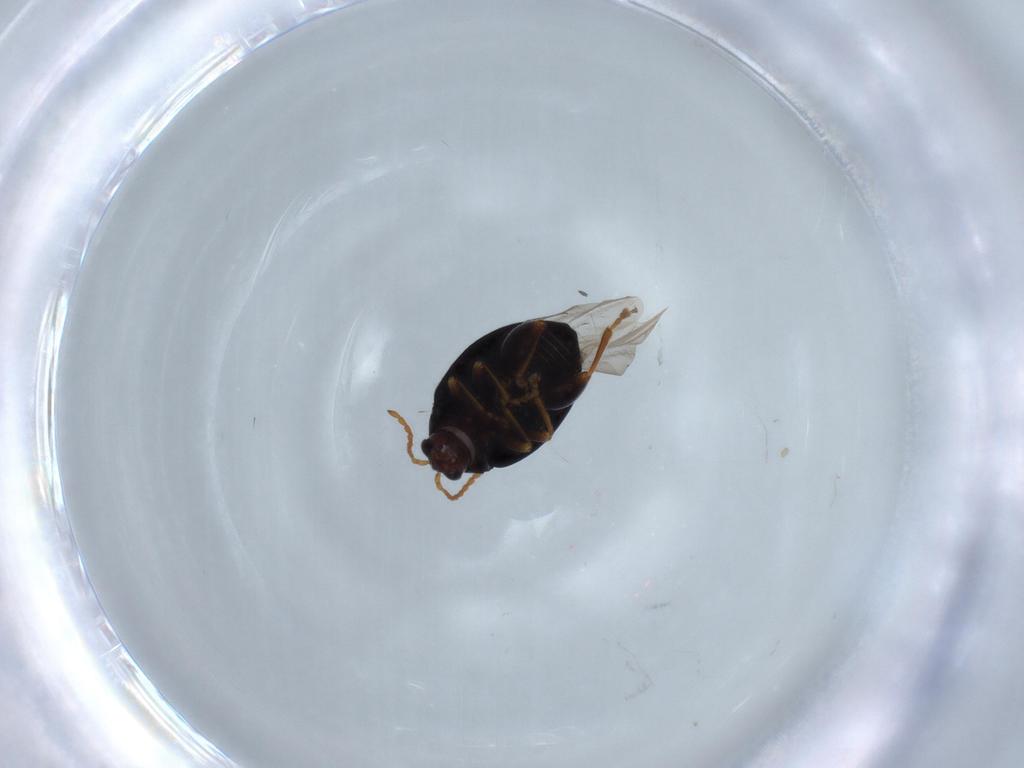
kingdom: Animalia
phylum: Arthropoda
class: Insecta
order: Coleoptera
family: Chrysomelidae
